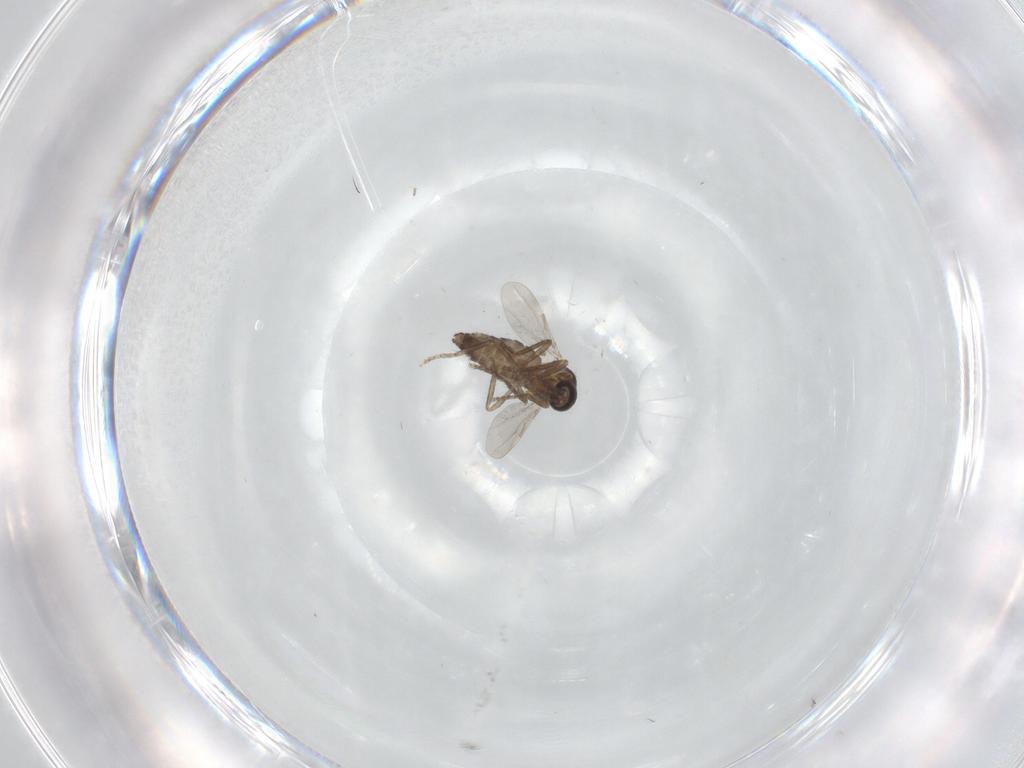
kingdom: Animalia
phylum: Arthropoda
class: Insecta
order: Diptera
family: Ceratopogonidae
